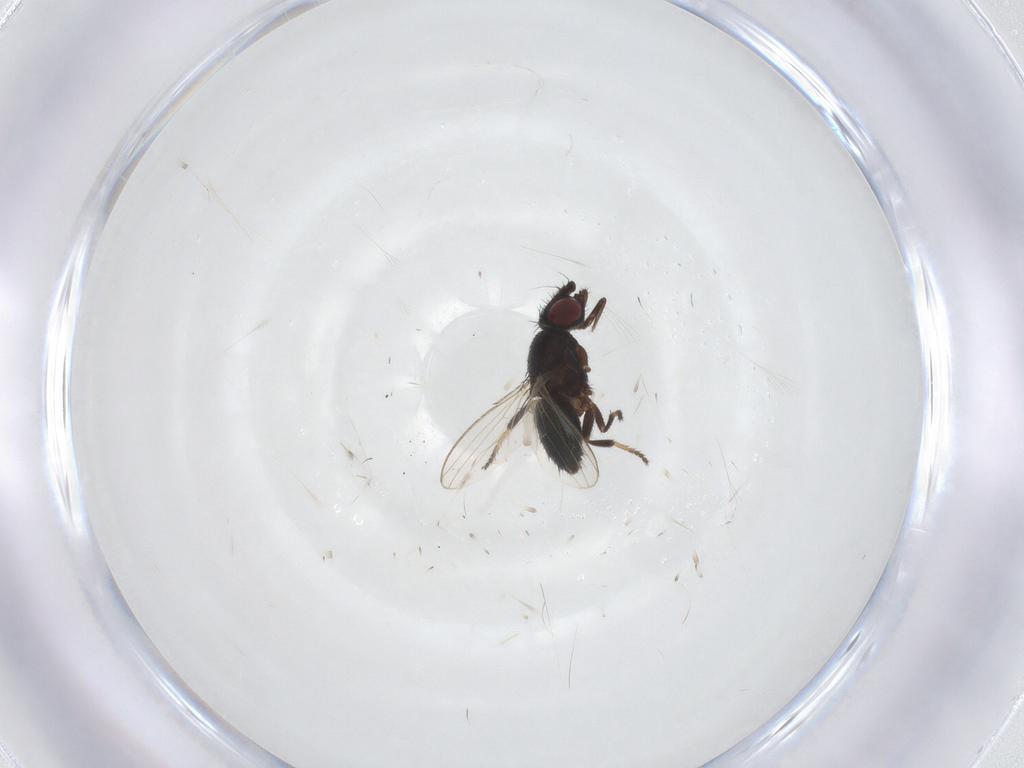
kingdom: Animalia
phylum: Arthropoda
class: Insecta
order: Diptera
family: Milichiidae
